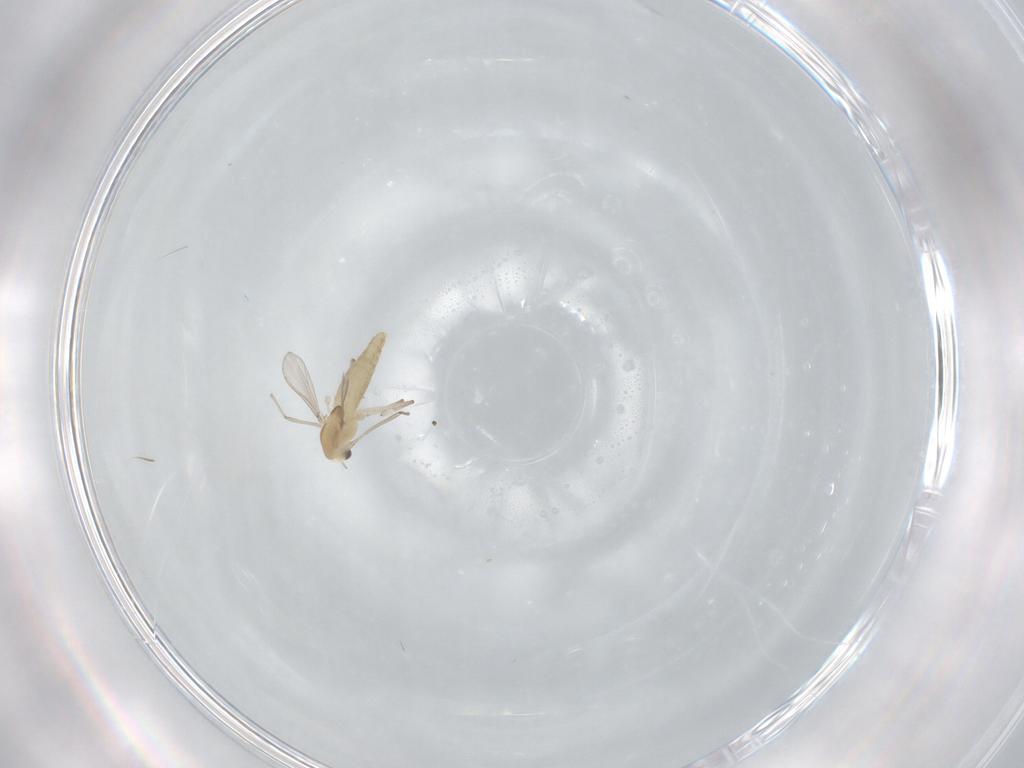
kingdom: Animalia
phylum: Arthropoda
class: Insecta
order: Diptera
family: Chironomidae
